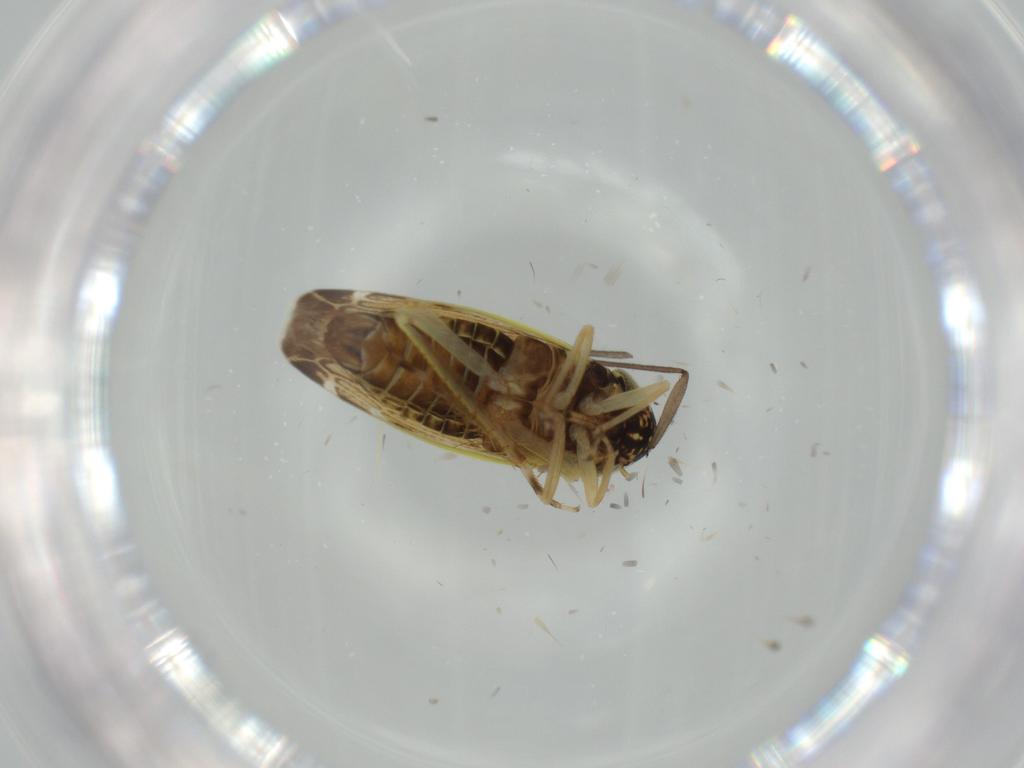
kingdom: Animalia
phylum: Arthropoda
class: Insecta
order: Hemiptera
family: Cicadellidae
